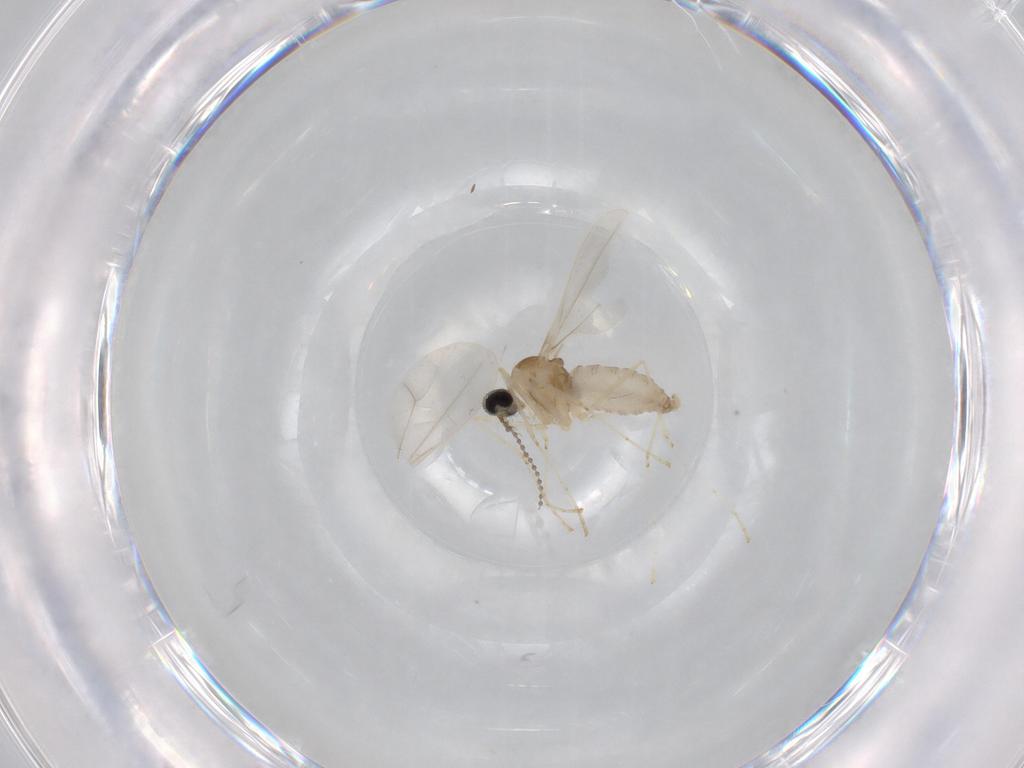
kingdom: Animalia
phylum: Arthropoda
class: Insecta
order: Diptera
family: Cecidomyiidae
